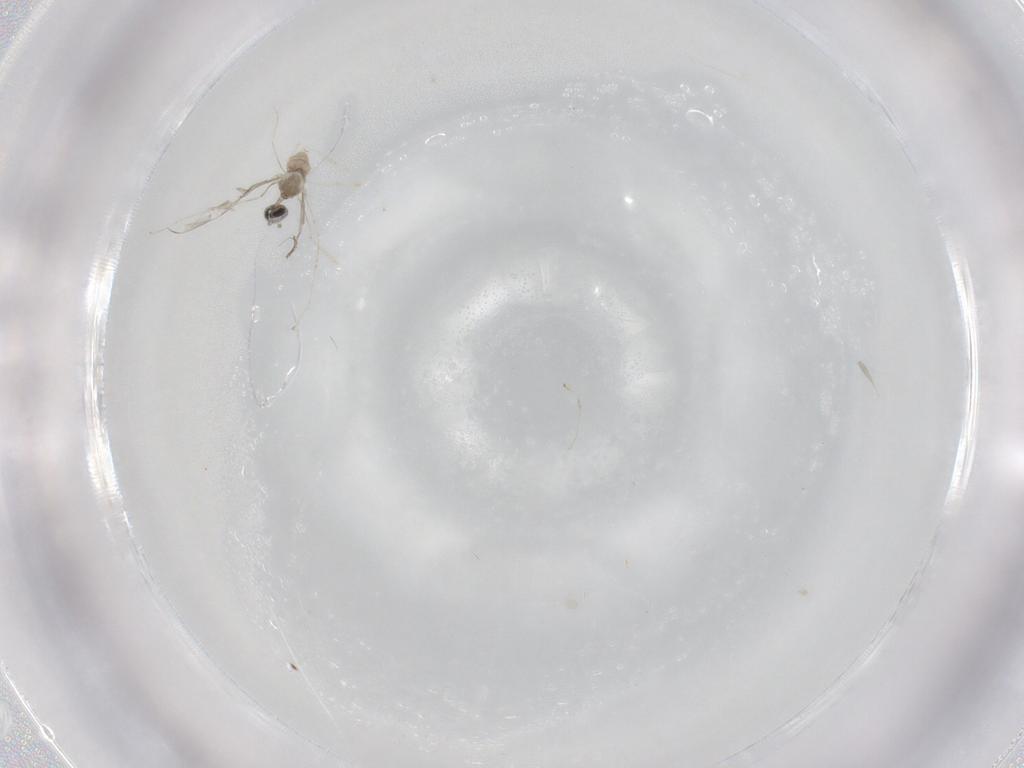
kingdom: Animalia
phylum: Arthropoda
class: Insecta
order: Diptera
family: Cecidomyiidae
